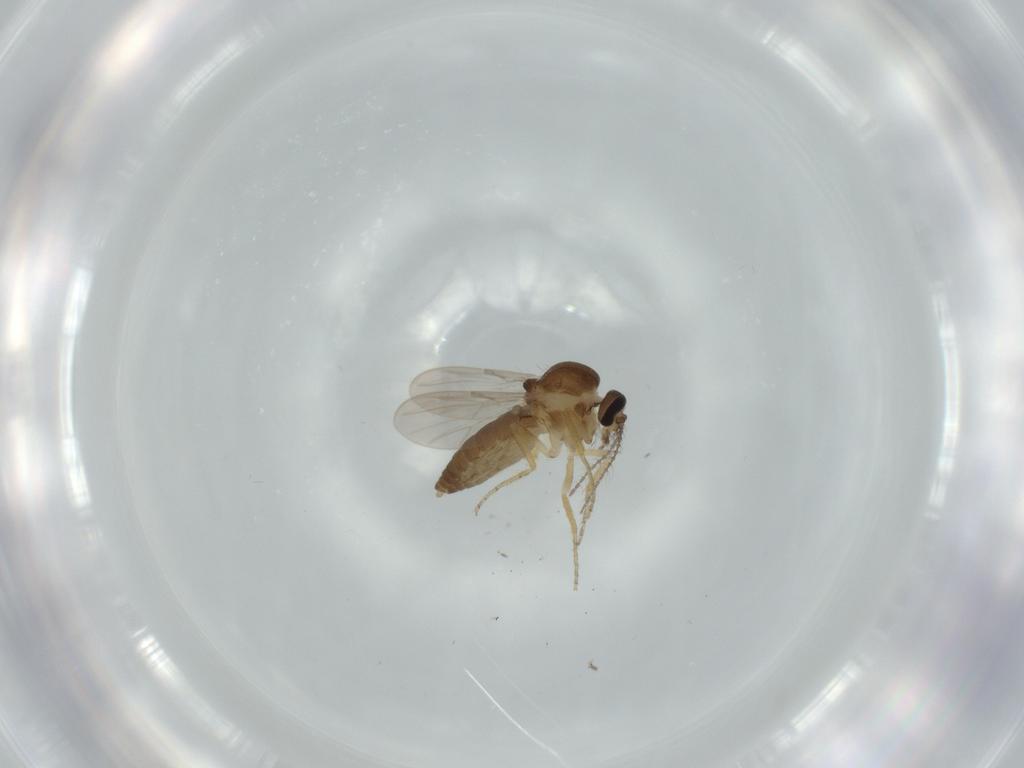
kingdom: Animalia
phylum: Arthropoda
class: Insecta
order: Diptera
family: Ceratopogonidae
